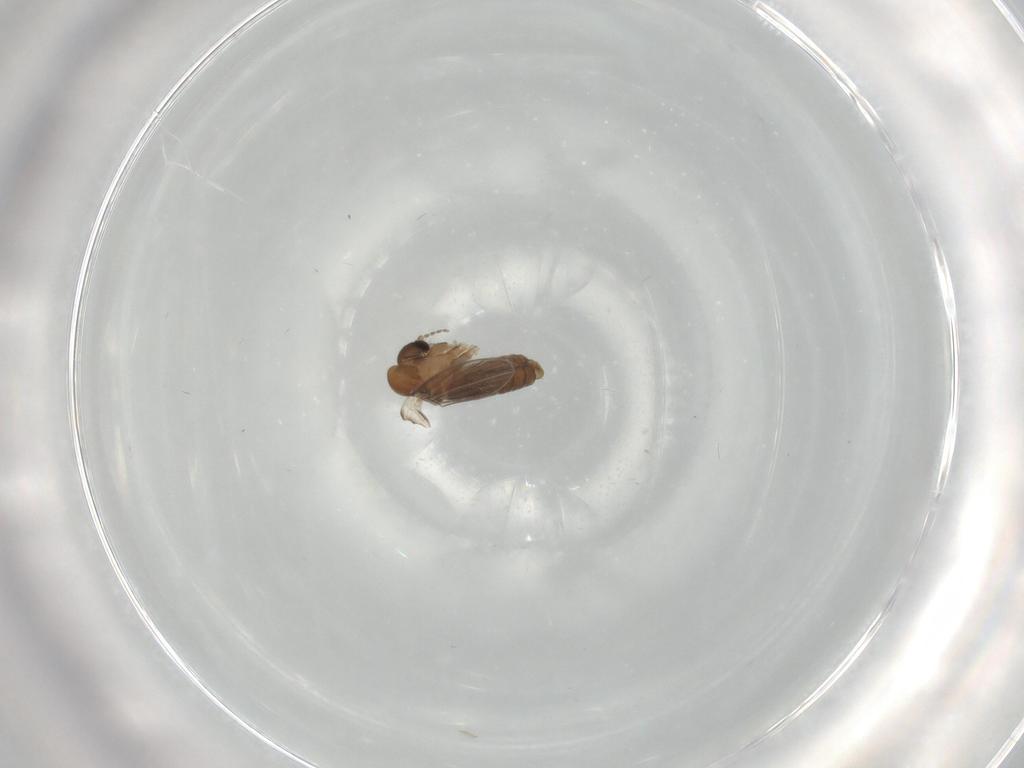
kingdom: Animalia
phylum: Arthropoda
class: Insecta
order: Diptera
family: Psychodidae
